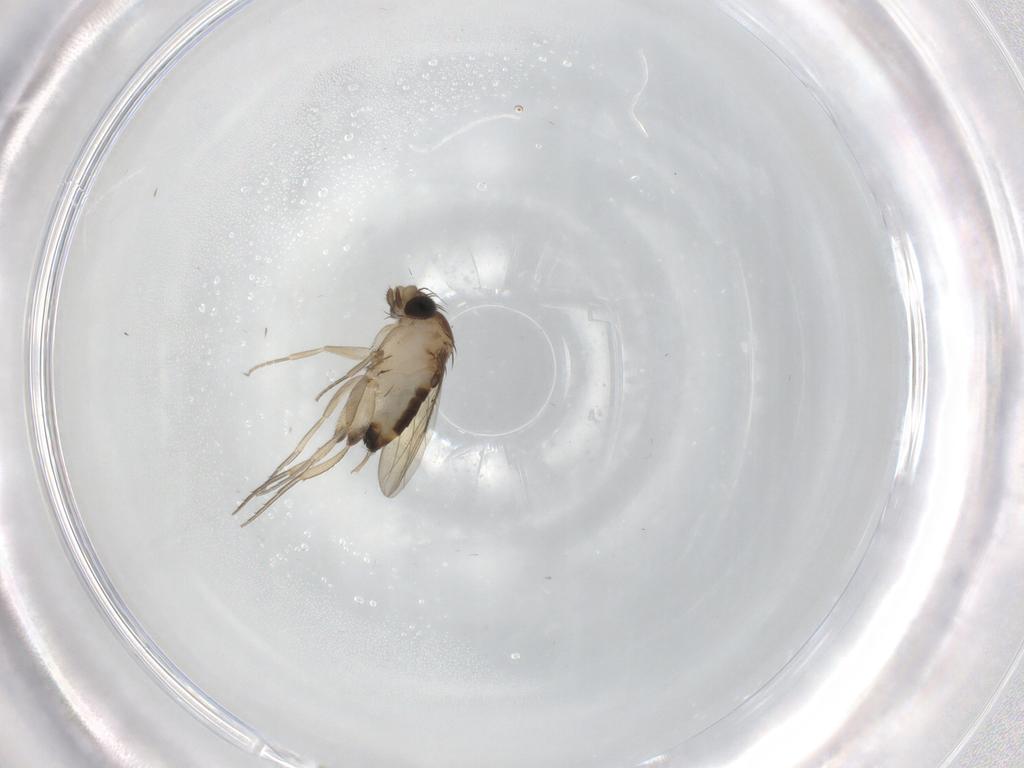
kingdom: Animalia
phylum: Arthropoda
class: Insecta
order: Diptera
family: Phoridae
